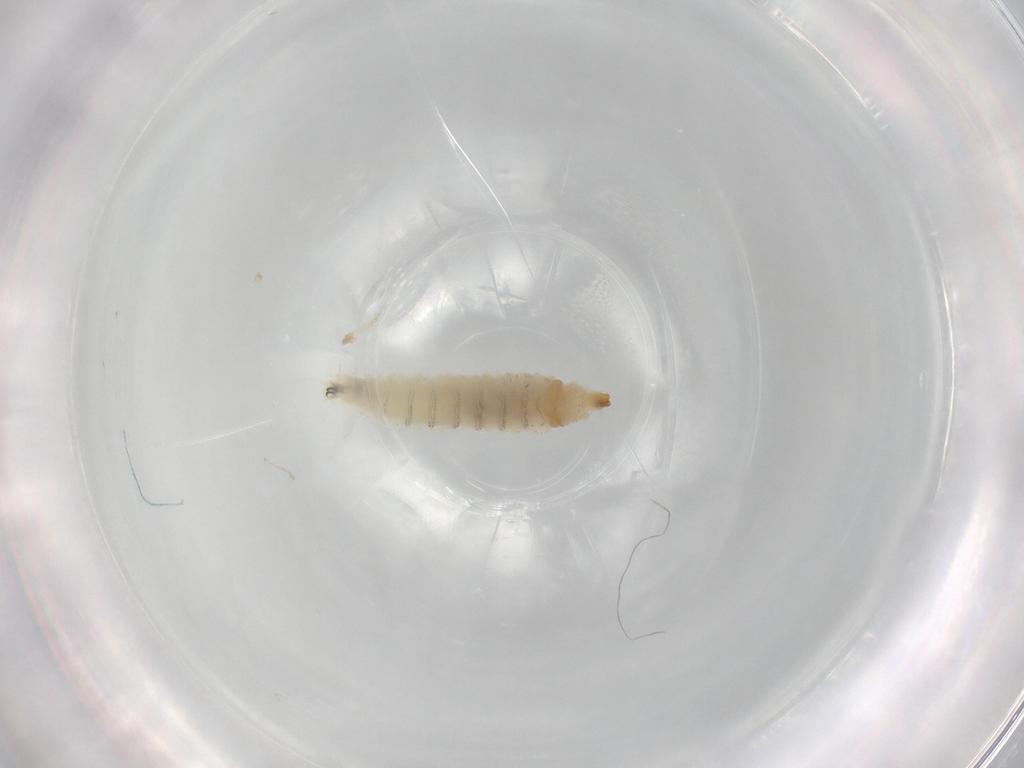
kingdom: Animalia
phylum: Arthropoda
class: Insecta
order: Diptera
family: Drosophilidae
